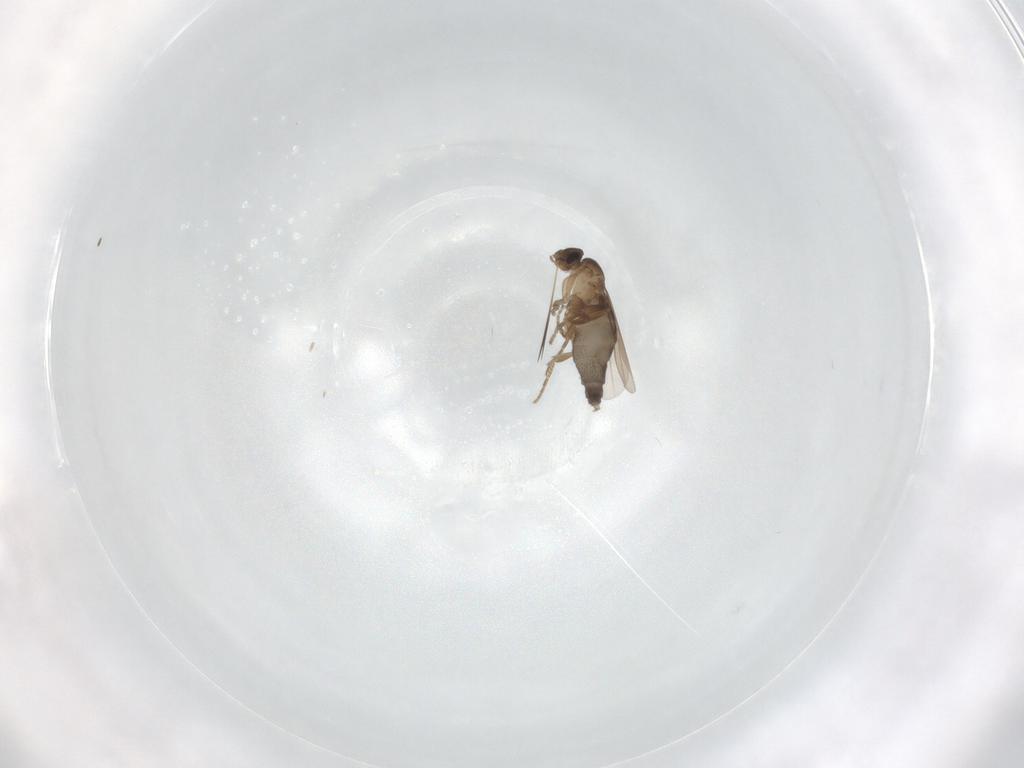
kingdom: Animalia
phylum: Arthropoda
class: Insecta
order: Diptera
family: Phoridae
